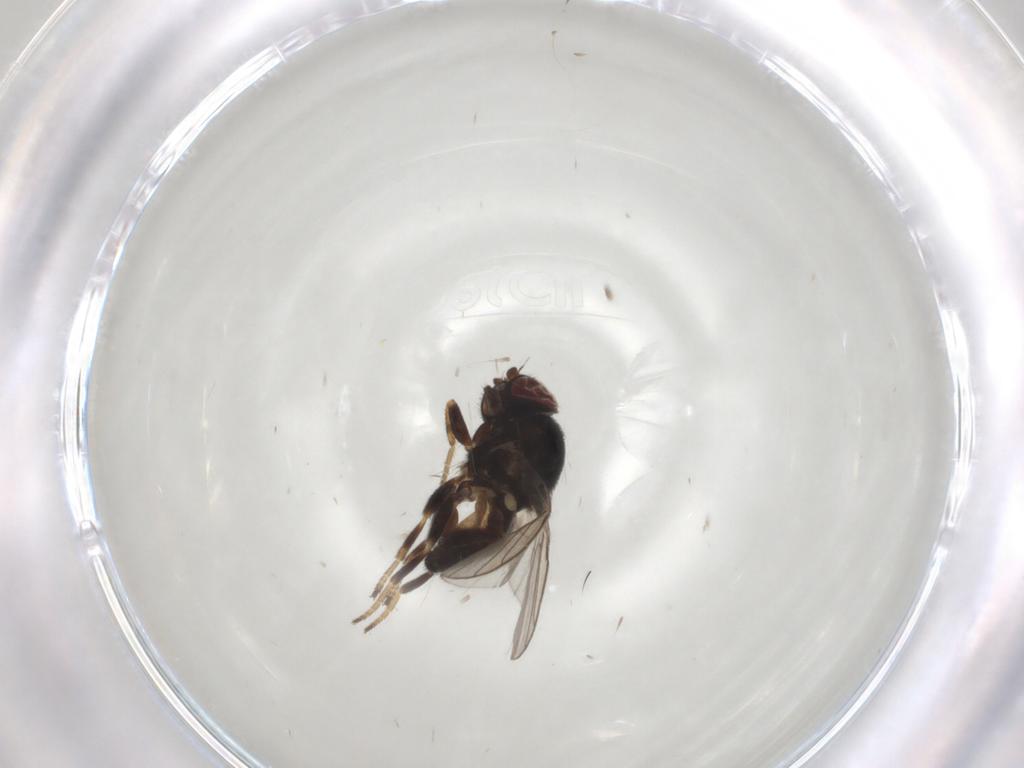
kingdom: Animalia
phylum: Arthropoda
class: Insecta
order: Diptera
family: Chloropidae
